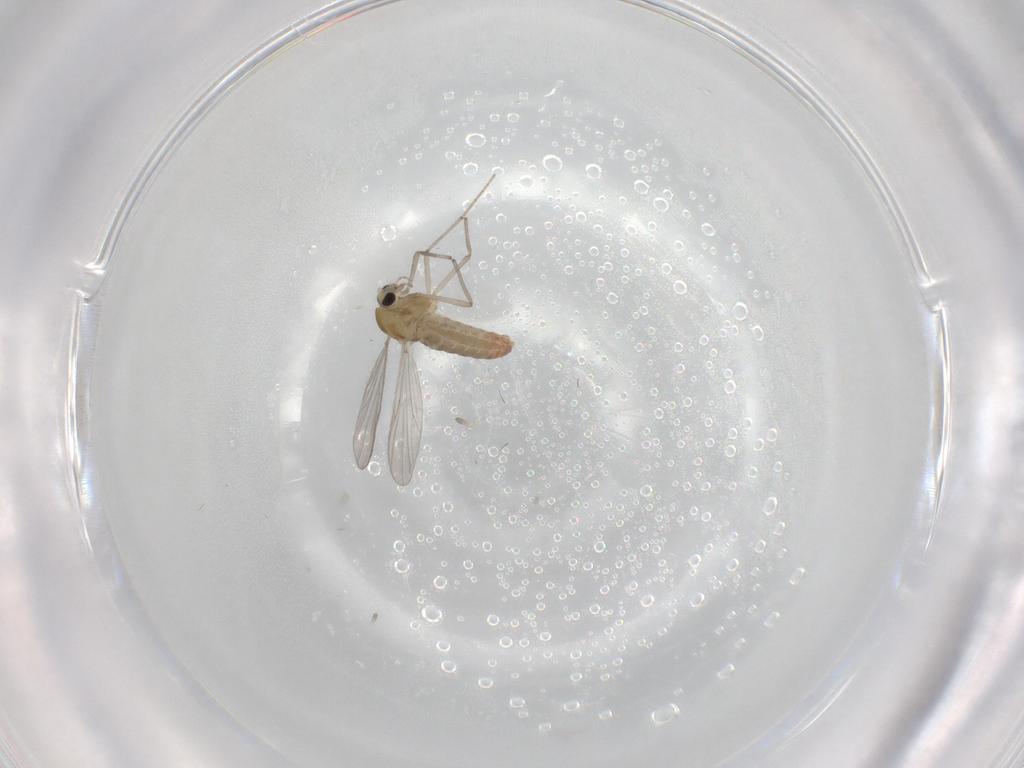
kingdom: Animalia
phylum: Arthropoda
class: Insecta
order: Diptera
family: Chironomidae
